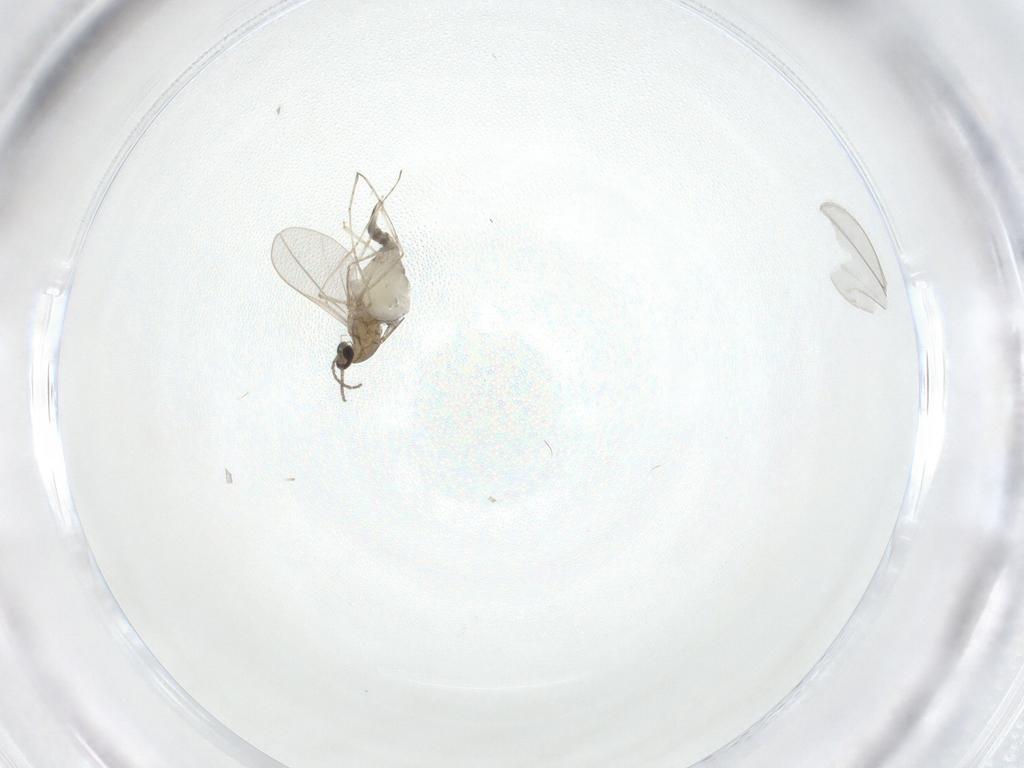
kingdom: Animalia
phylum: Arthropoda
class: Insecta
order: Diptera
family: Cecidomyiidae
